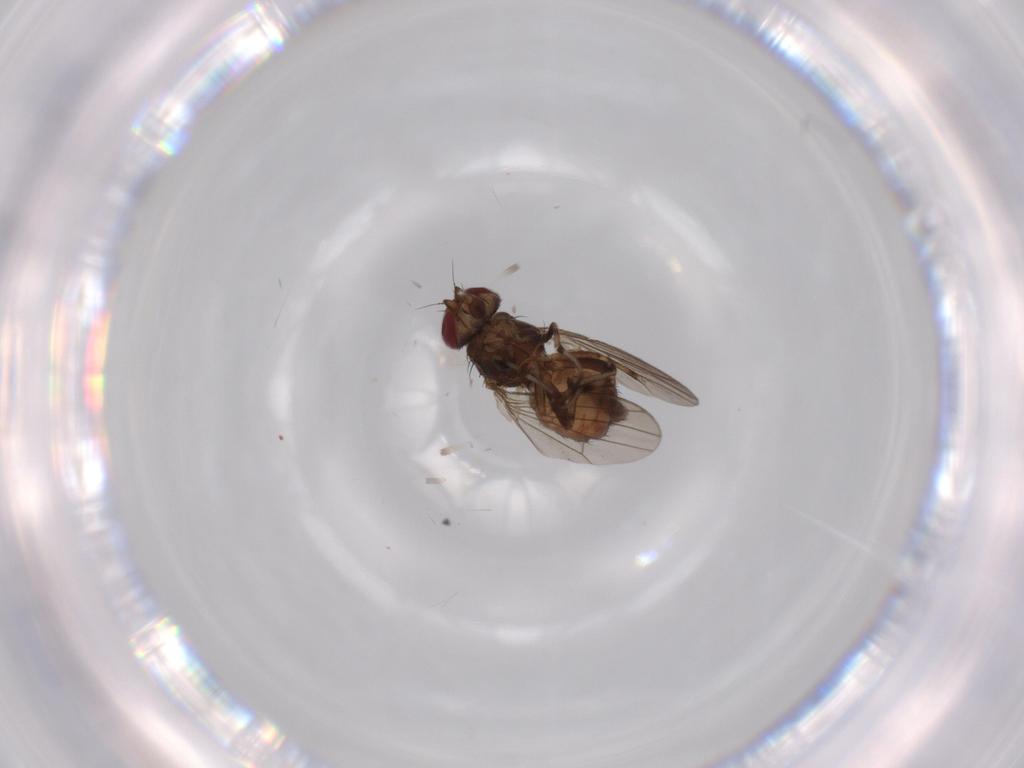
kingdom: Animalia
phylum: Arthropoda
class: Insecta
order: Diptera
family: Heleomyzidae
